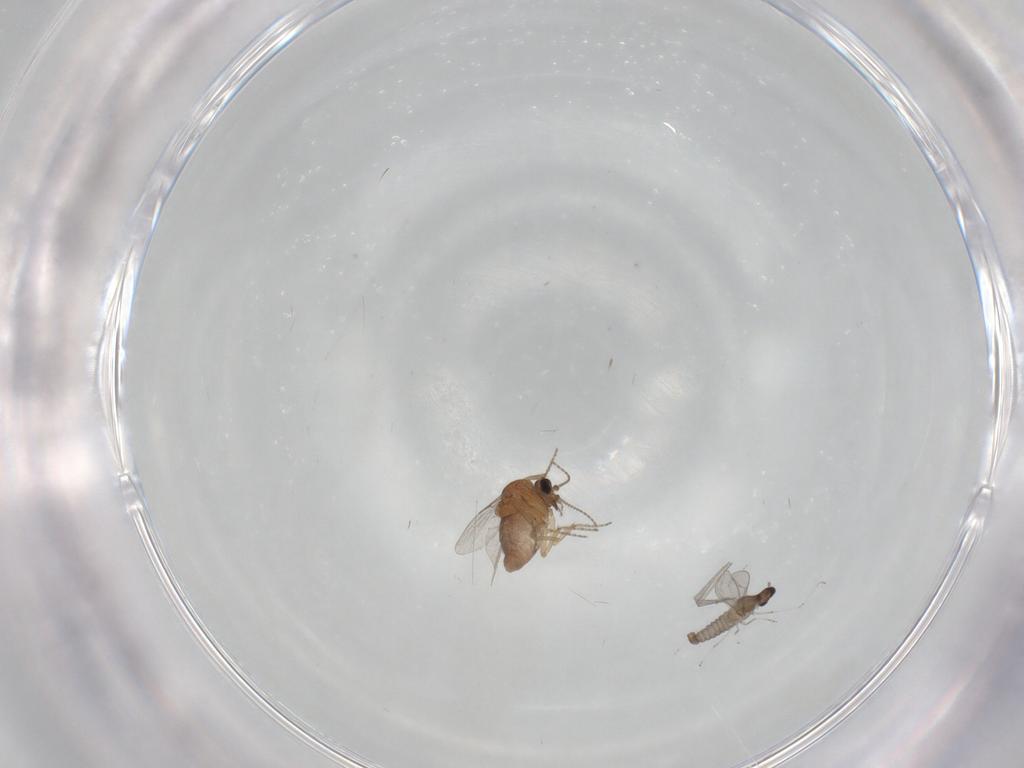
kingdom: Animalia
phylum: Arthropoda
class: Insecta
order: Diptera
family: Cecidomyiidae
